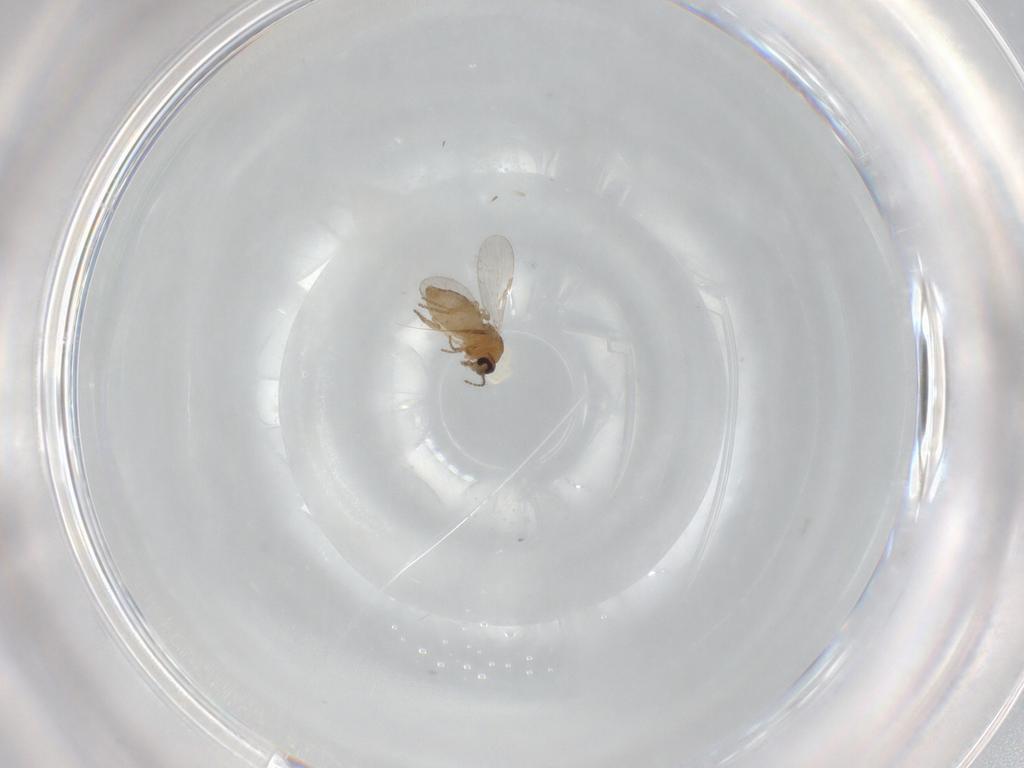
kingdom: Animalia
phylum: Arthropoda
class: Insecta
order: Diptera
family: Ceratopogonidae
